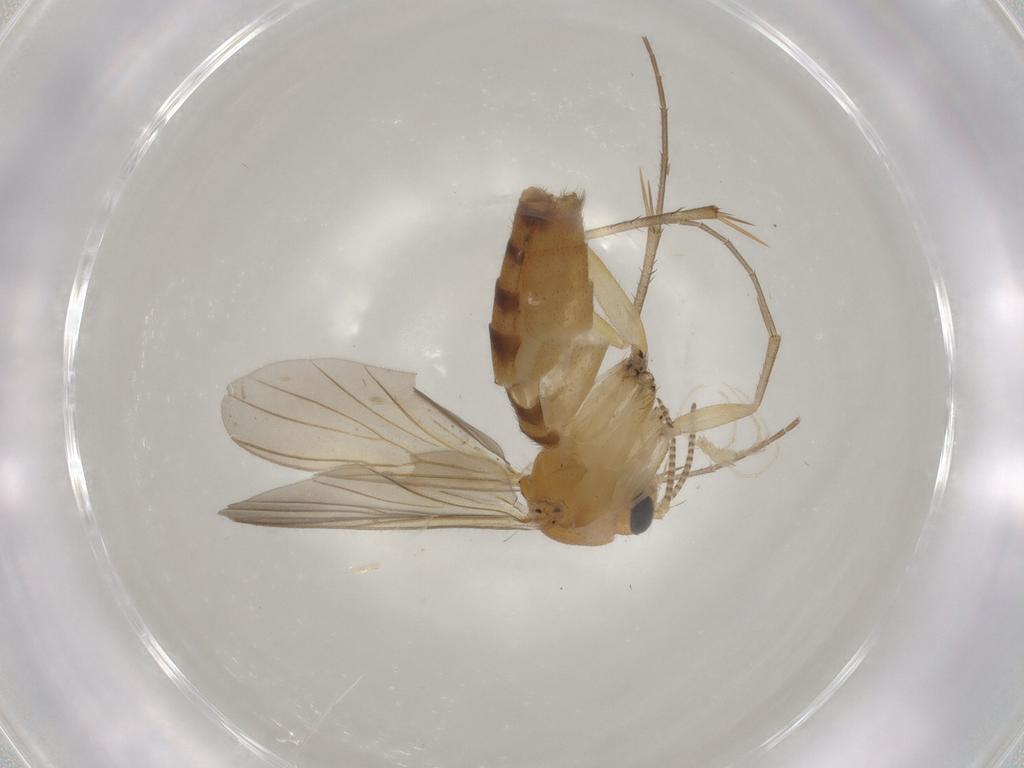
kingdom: Animalia
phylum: Arthropoda
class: Insecta
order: Diptera
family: Mycetophilidae
